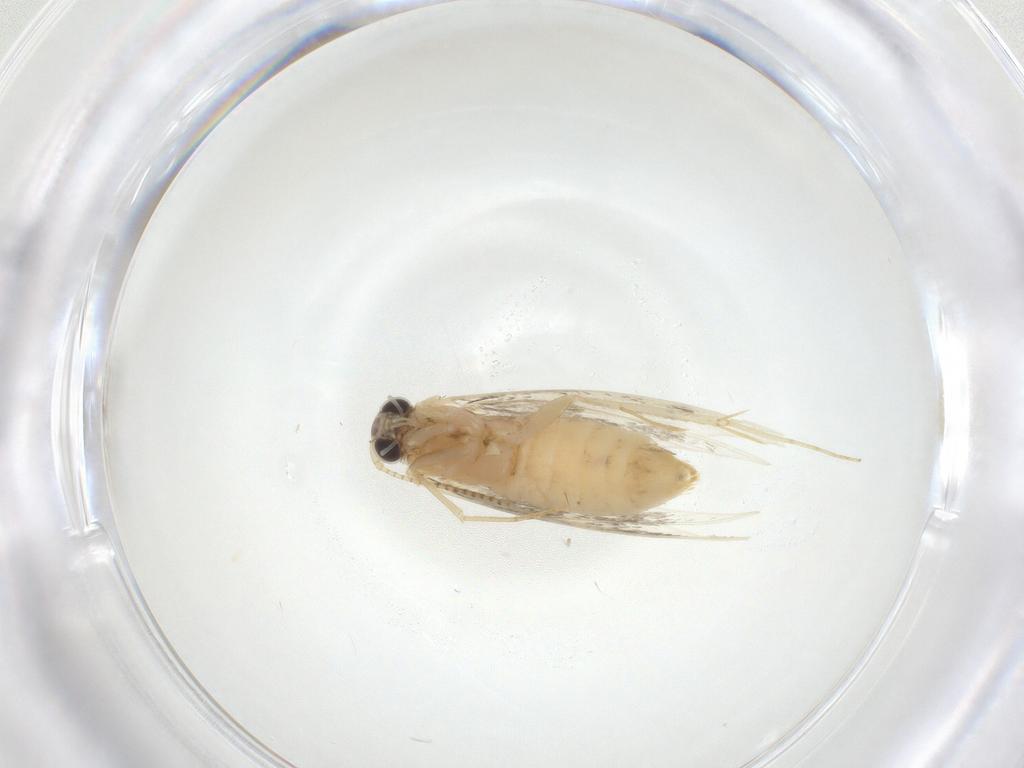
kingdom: Animalia
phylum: Arthropoda
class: Insecta
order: Lepidoptera
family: Tineidae
